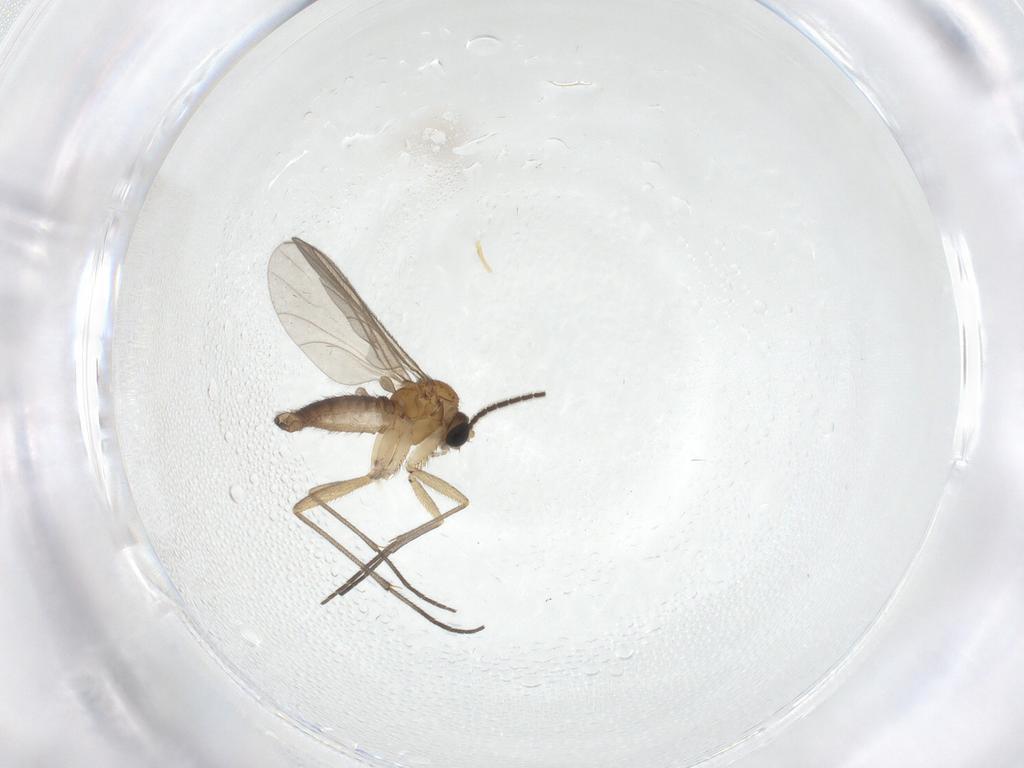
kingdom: Animalia
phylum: Arthropoda
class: Insecta
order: Diptera
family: Sciaridae
